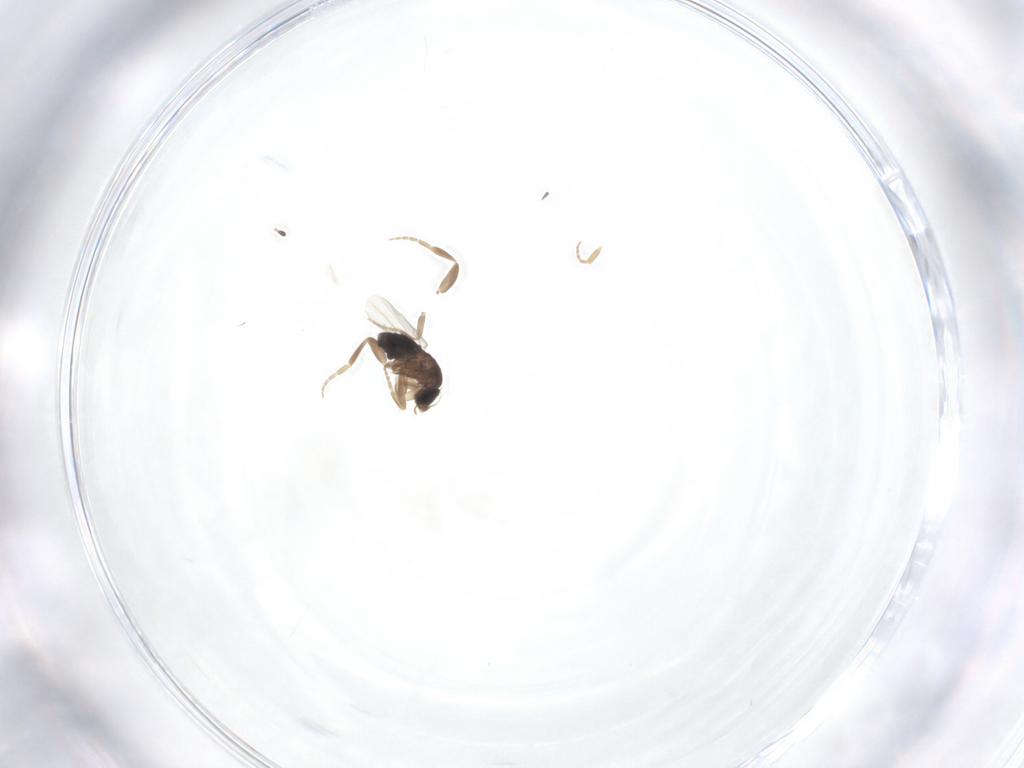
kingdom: Animalia
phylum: Arthropoda
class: Insecta
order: Diptera
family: Phoridae
